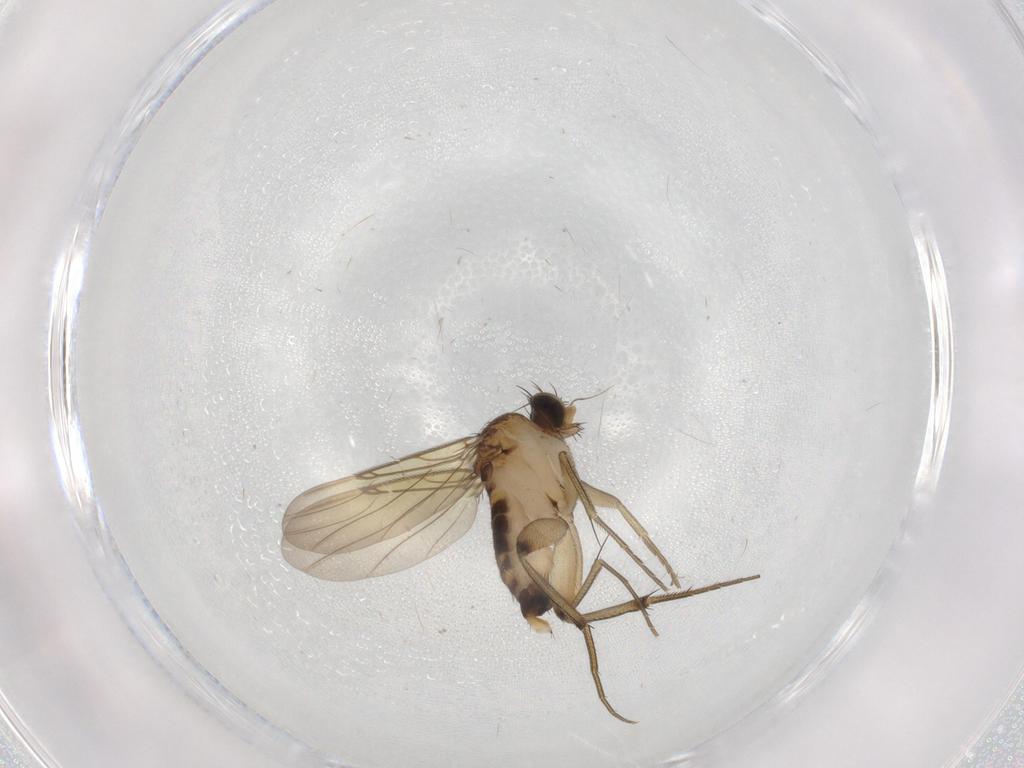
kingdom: Animalia
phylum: Arthropoda
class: Insecta
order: Diptera
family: Phoridae
